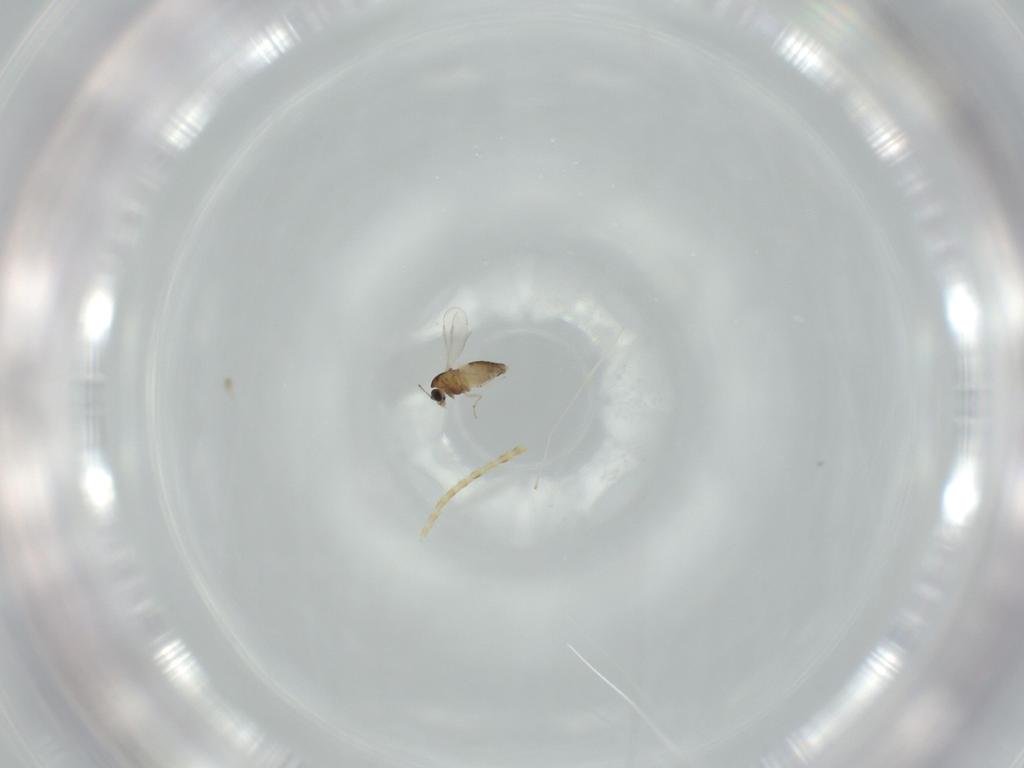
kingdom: Animalia
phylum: Arthropoda
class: Insecta
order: Diptera
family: Chironomidae
